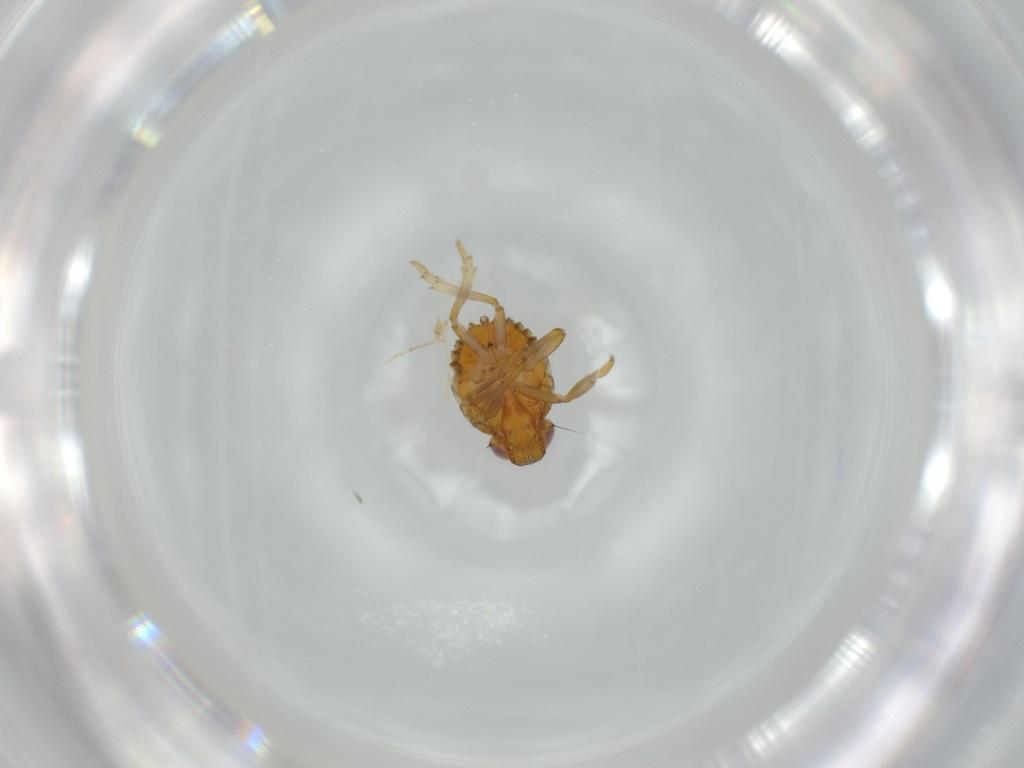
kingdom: Animalia
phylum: Arthropoda
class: Insecta
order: Hemiptera
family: Issidae
